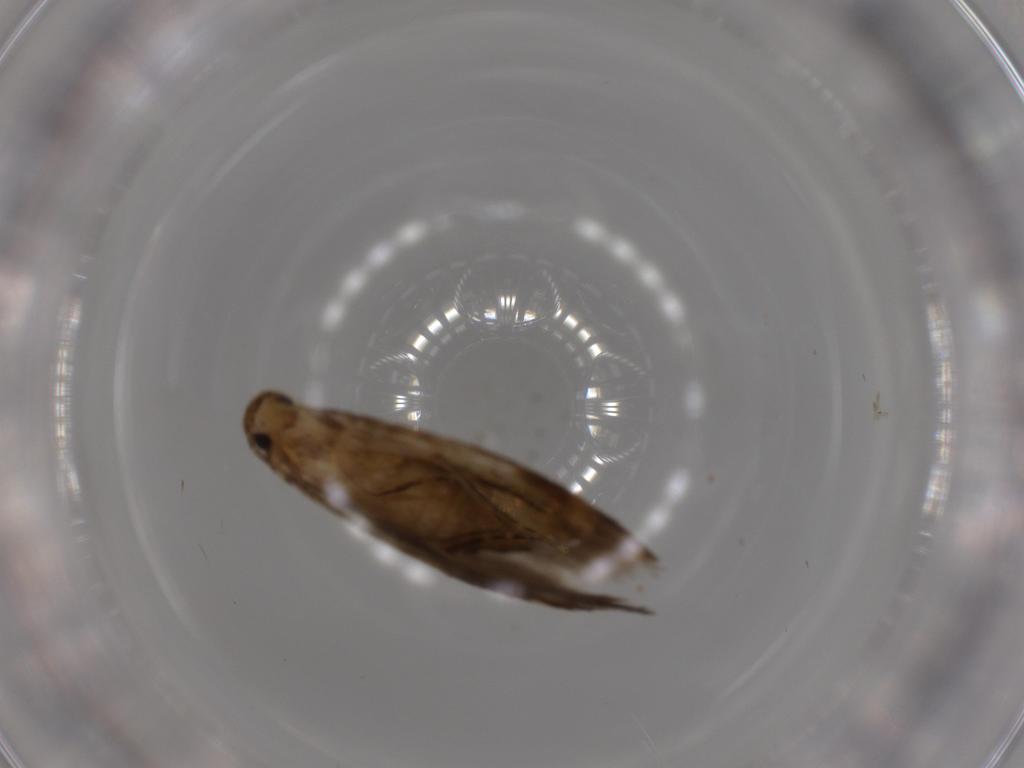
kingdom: Animalia
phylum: Arthropoda
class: Insecta
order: Lepidoptera
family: Tineidae
